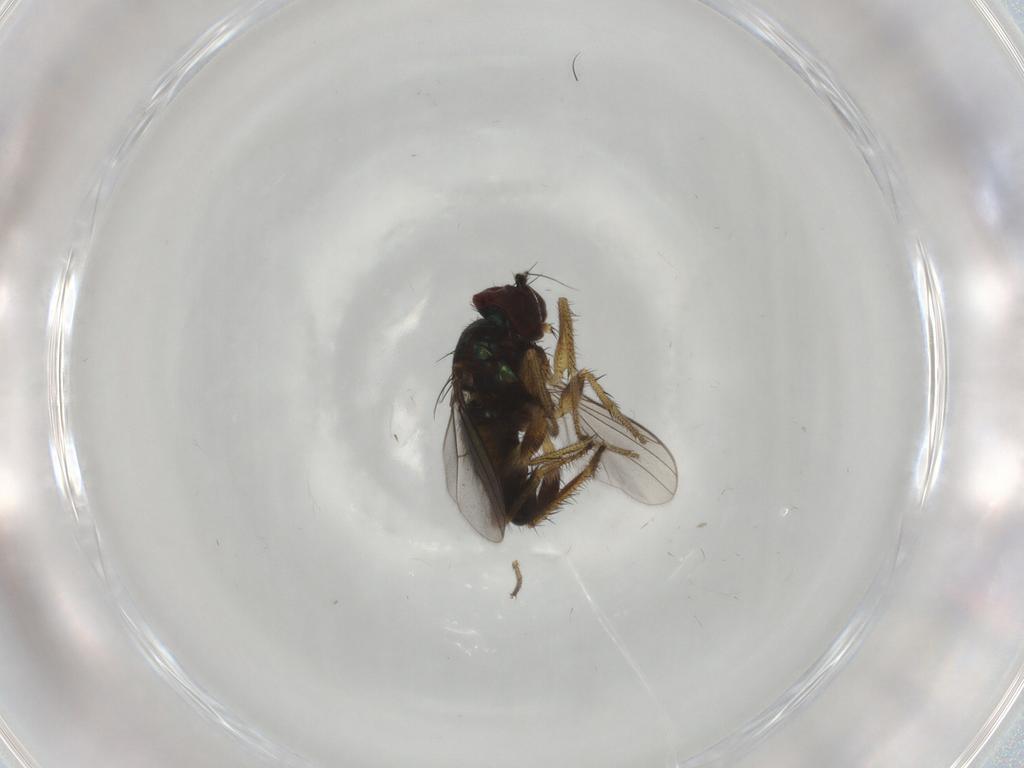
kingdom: Animalia
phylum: Arthropoda
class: Insecta
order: Diptera
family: Dolichopodidae
